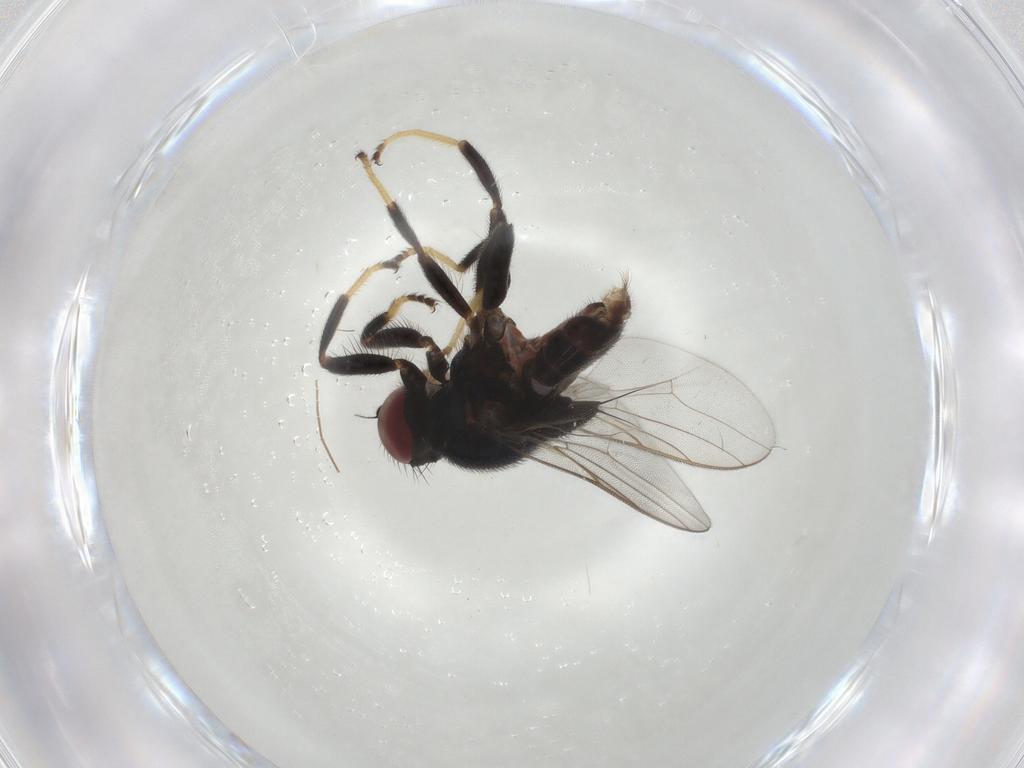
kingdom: Animalia
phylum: Arthropoda
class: Insecta
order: Diptera
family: Chloropidae
